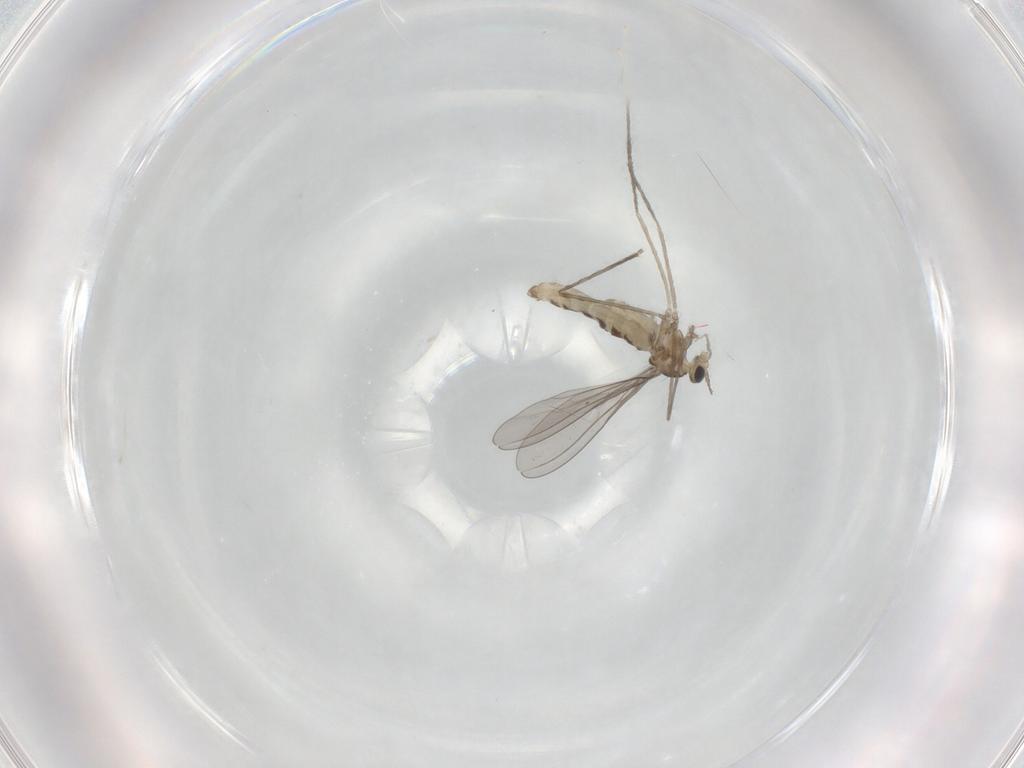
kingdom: Animalia
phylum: Arthropoda
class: Insecta
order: Diptera
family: Cecidomyiidae
